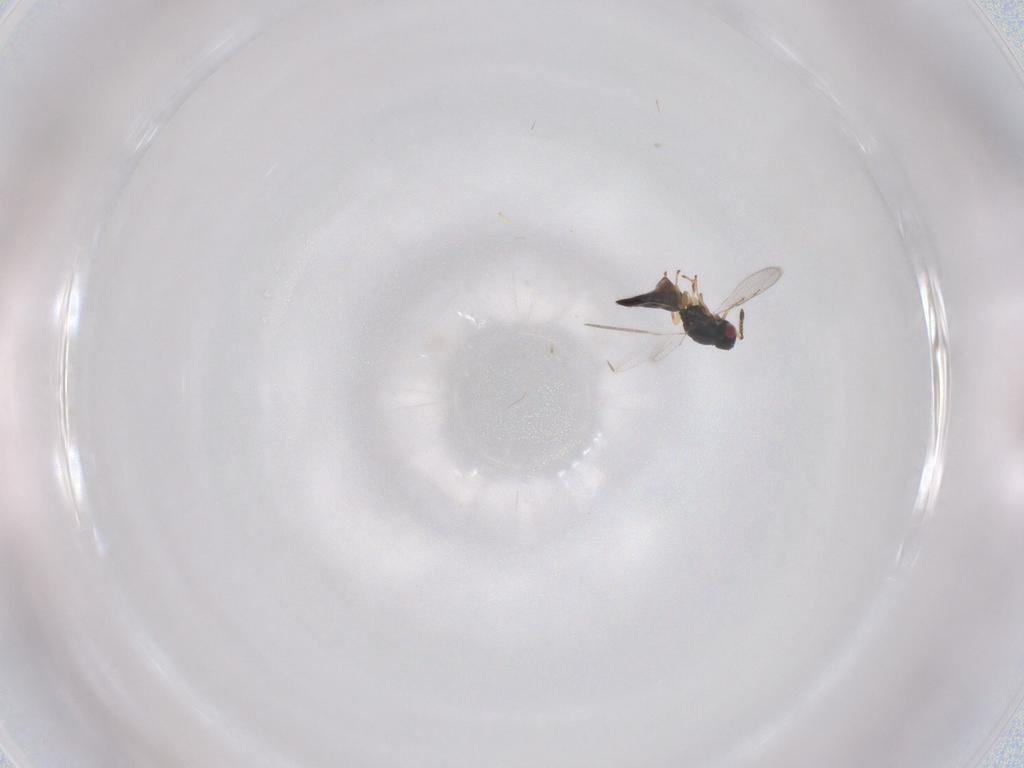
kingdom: Animalia
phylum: Arthropoda
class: Insecta
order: Hymenoptera
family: Pteromalidae
